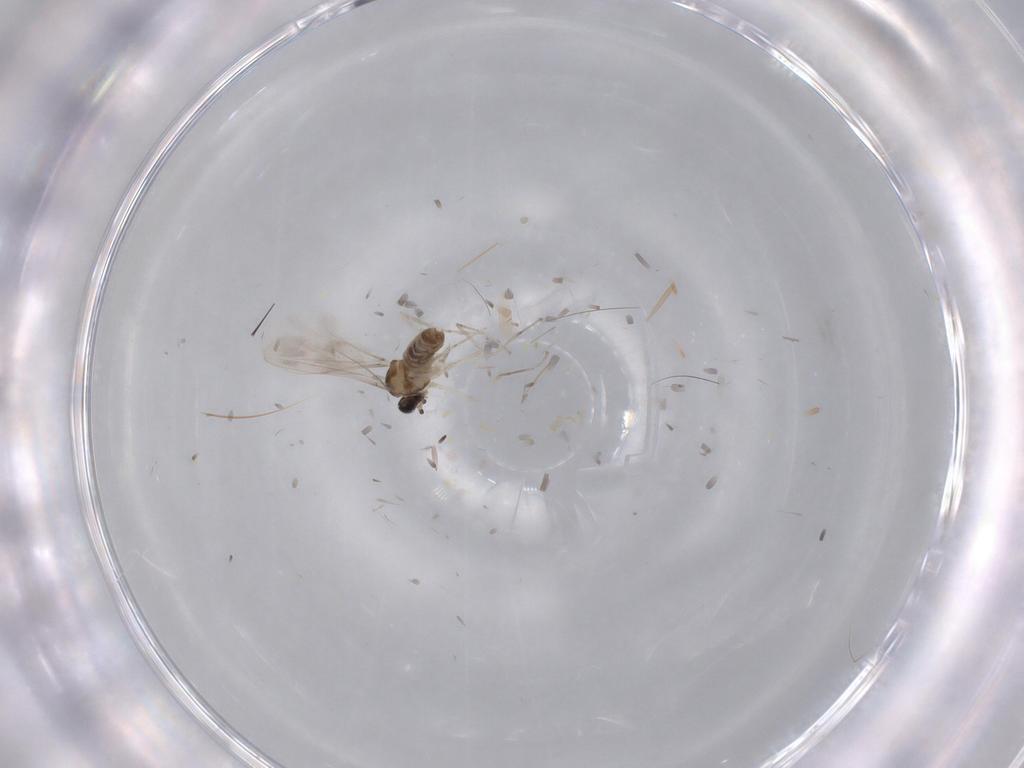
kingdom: Animalia
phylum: Arthropoda
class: Insecta
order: Diptera
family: Cecidomyiidae
